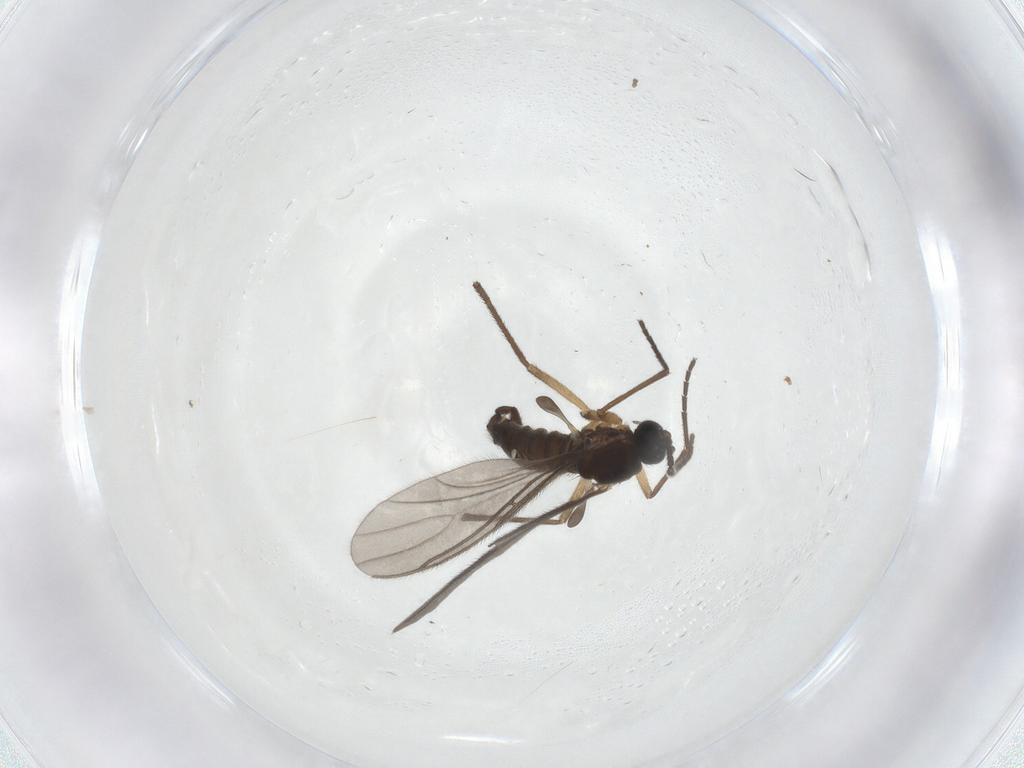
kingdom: Animalia
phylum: Arthropoda
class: Insecta
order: Diptera
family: Sciaridae
